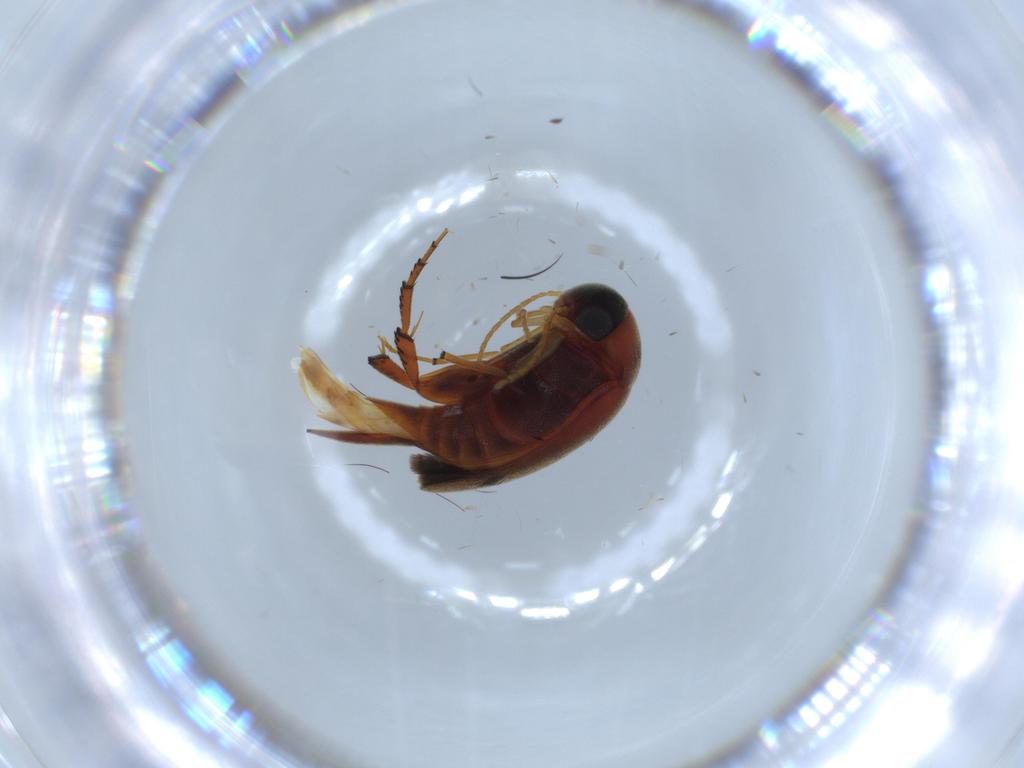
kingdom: Animalia
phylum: Arthropoda
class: Insecta
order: Coleoptera
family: Mordellidae
